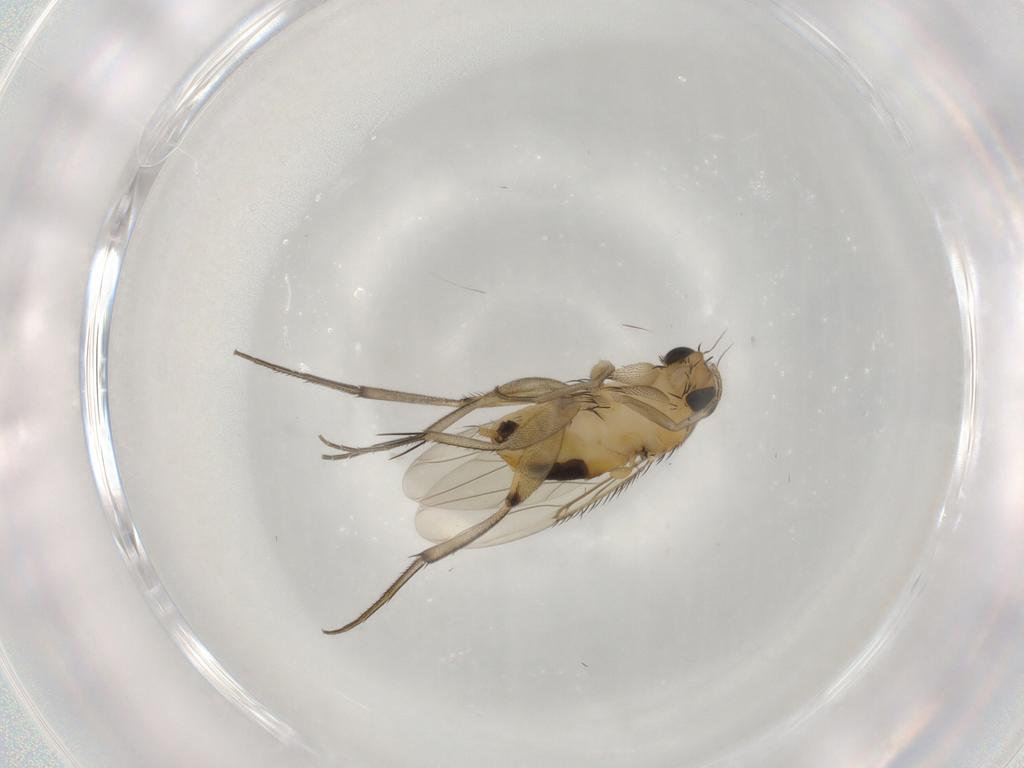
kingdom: Animalia
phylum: Arthropoda
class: Insecta
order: Diptera
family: Phoridae
